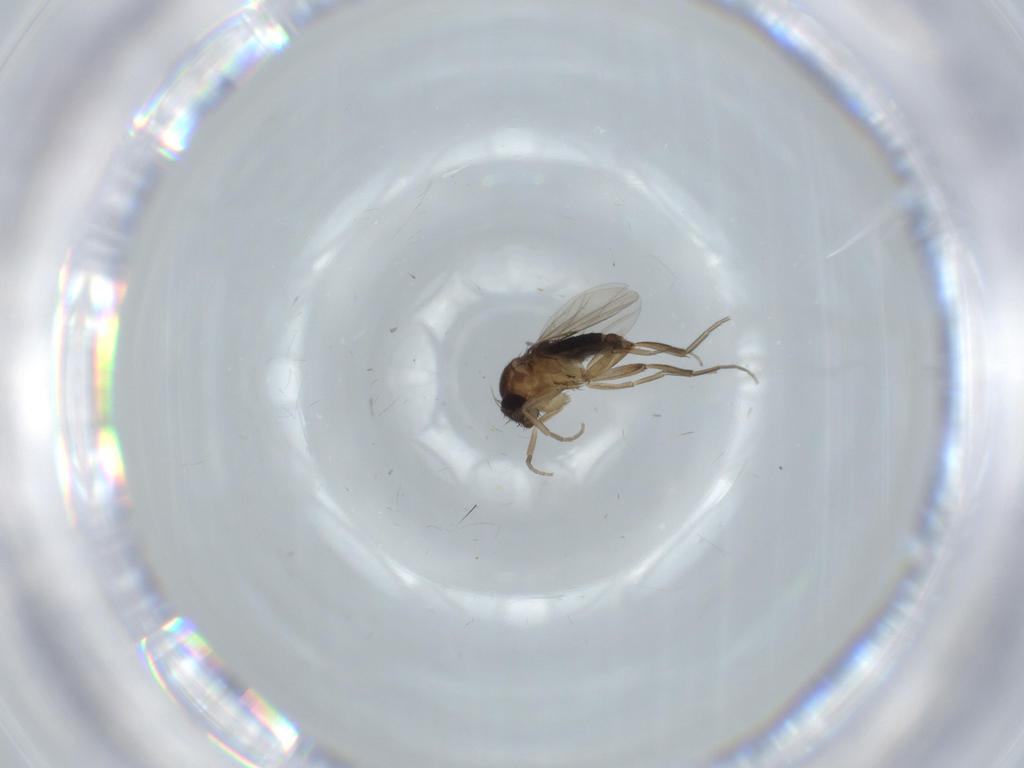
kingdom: Animalia
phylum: Arthropoda
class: Insecta
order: Diptera
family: Phoridae
